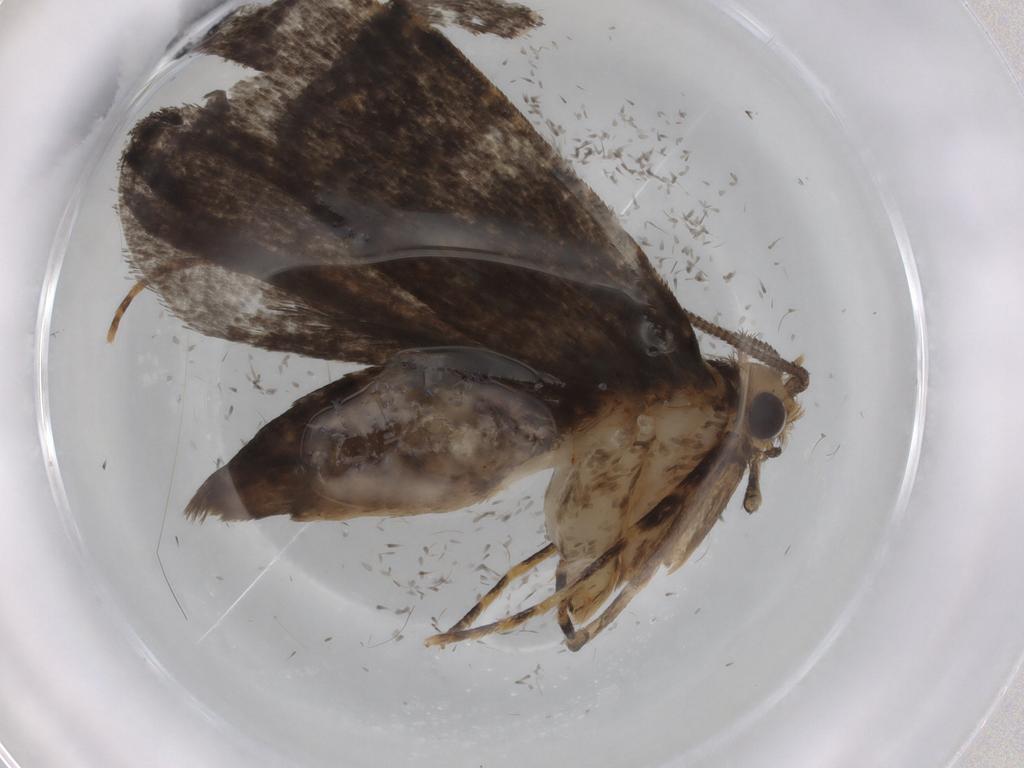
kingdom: Animalia
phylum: Arthropoda
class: Insecta
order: Lepidoptera
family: Tineidae
